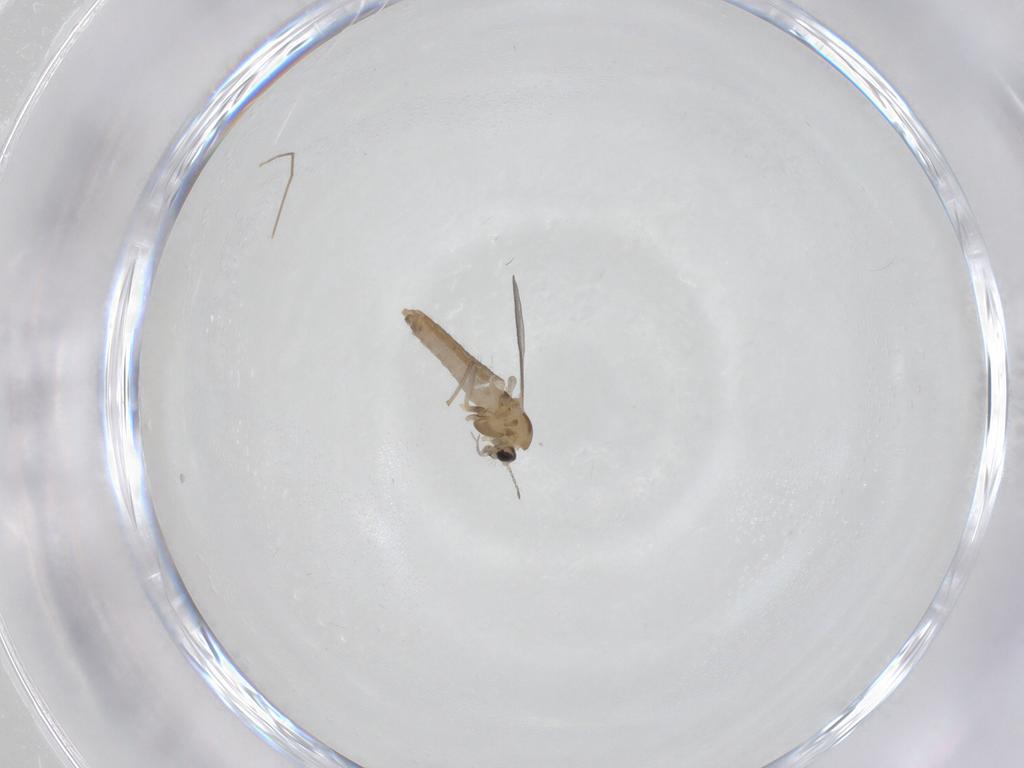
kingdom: Animalia
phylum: Arthropoda
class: Insecta
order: Diptera
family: Chironomidae
